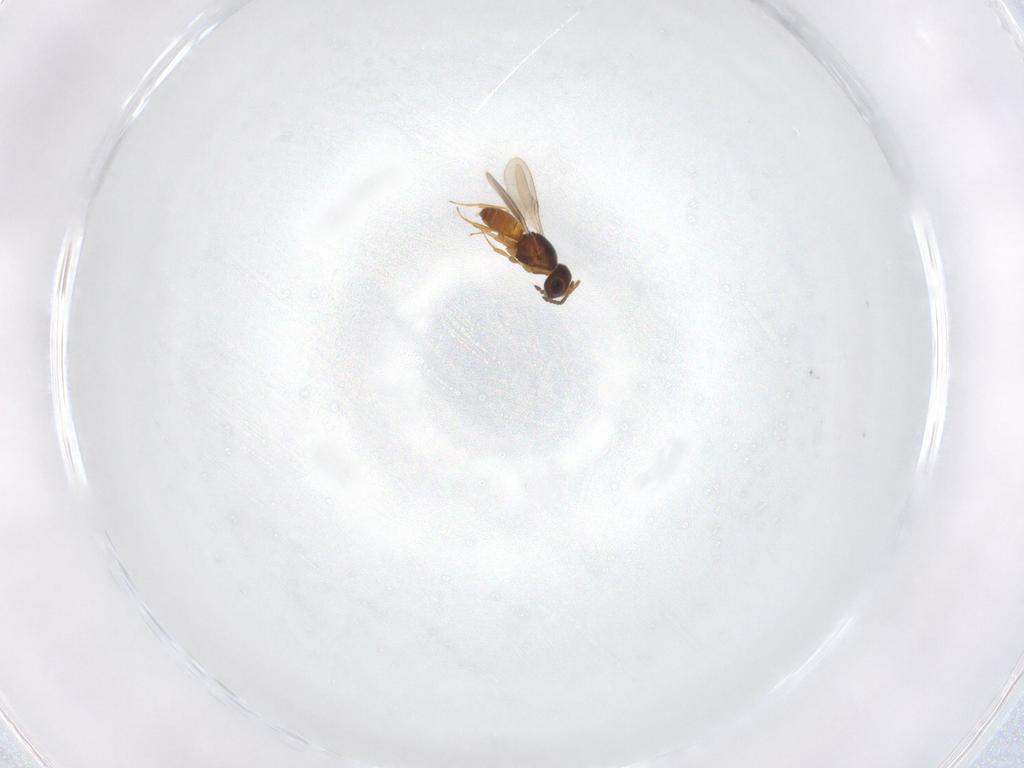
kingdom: Animalia
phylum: Arthropoda
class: Insecta
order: Hymenoptera
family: Scelionidae
